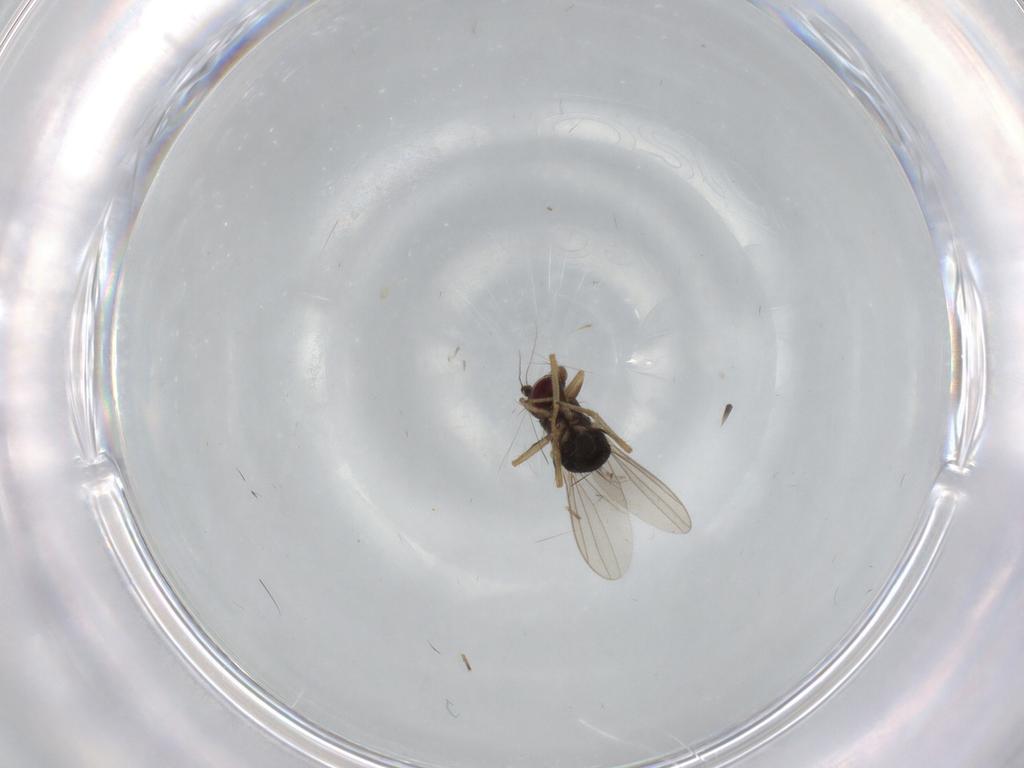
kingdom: Animalia
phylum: Arthropoda
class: Insecta
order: Diptera
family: Dolichopodidae
